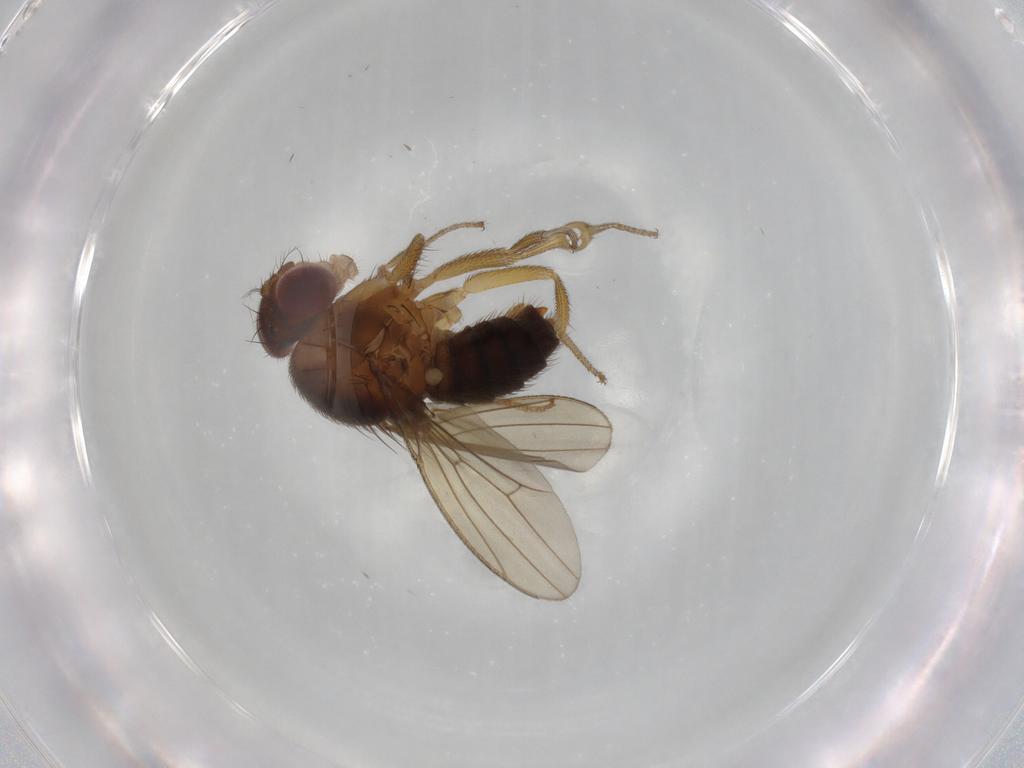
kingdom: Animalia
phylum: Arthropoda
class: Insecta
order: Diptera
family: Drosophilidae
